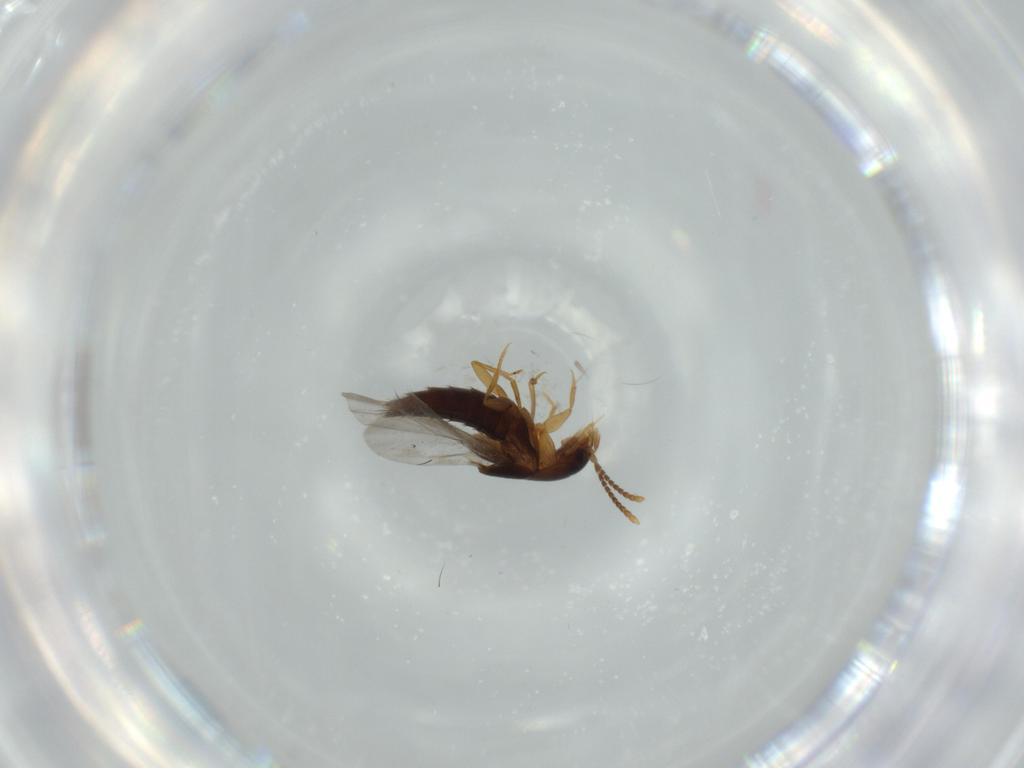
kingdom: Animalia
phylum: Arthropoda
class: Insecta
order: Coleoptera
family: Staphylinidae
